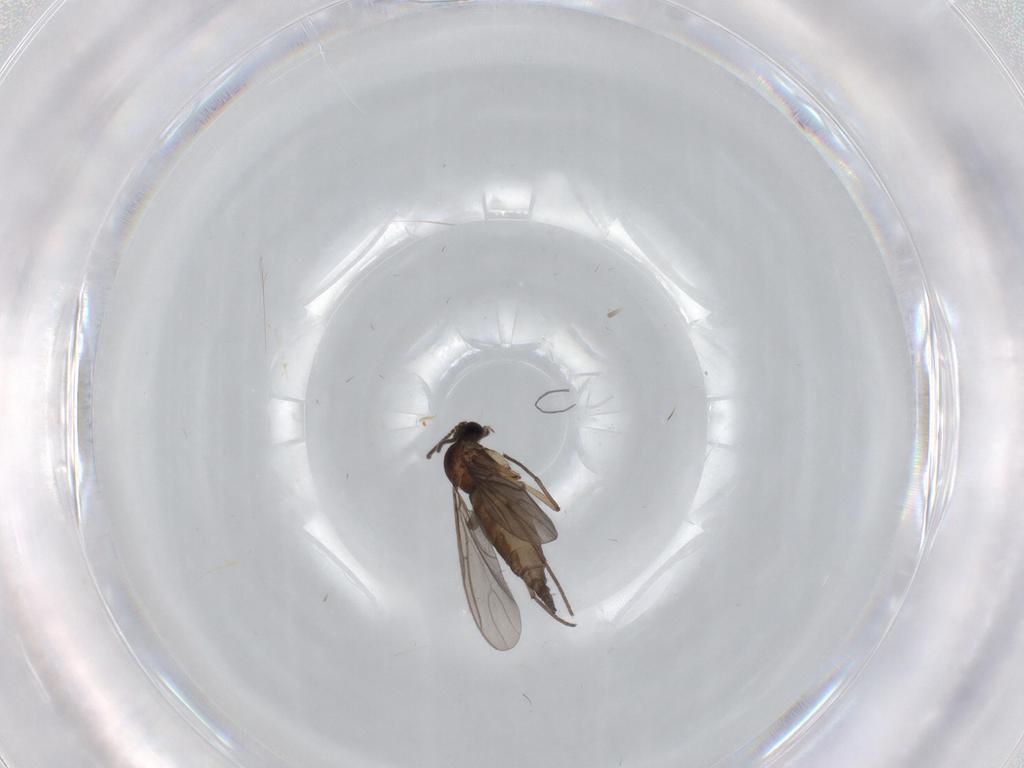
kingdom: Animalia
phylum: Arthropoda
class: Insecta
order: Diptera
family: Sciaridae
